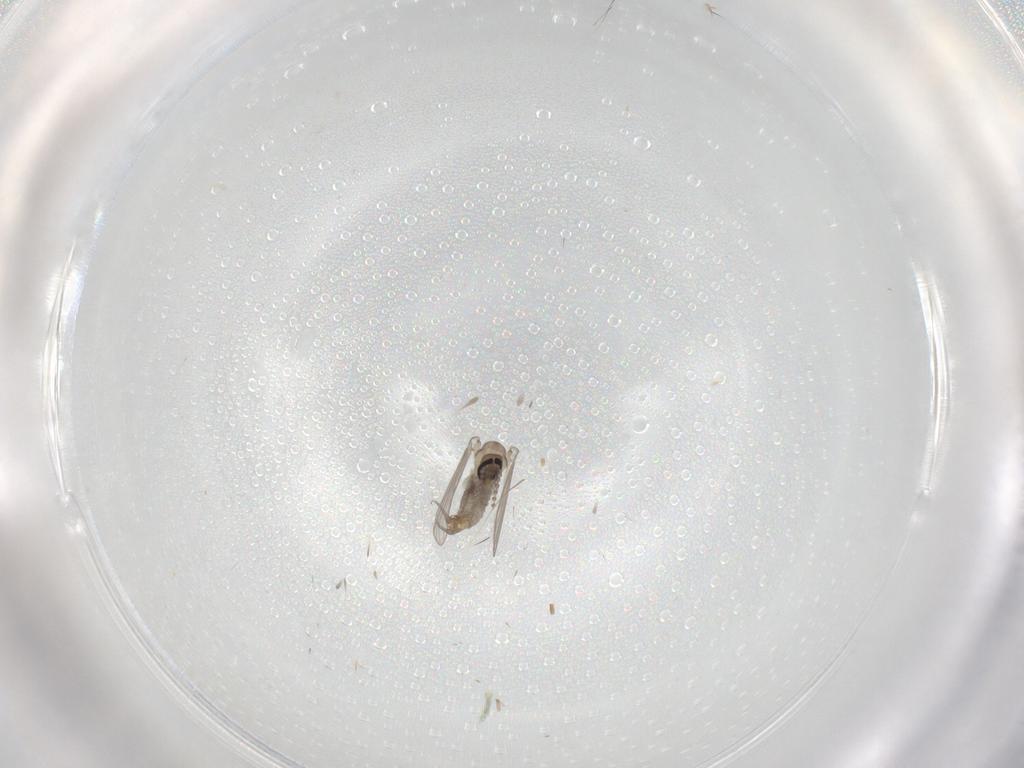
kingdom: Animalia
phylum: Arthropoda
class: Insecta
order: Diptera
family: Psychodidae
